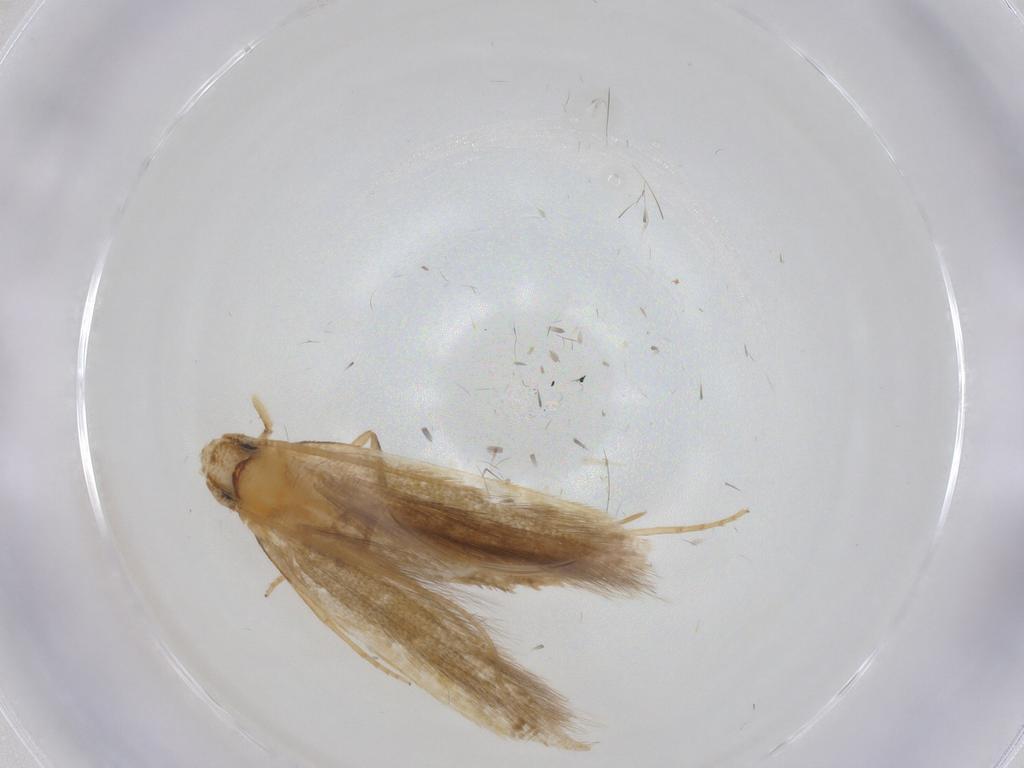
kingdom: Animalia
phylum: Arthropoda
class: Insecta
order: Lepidoptera
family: Tineidae
